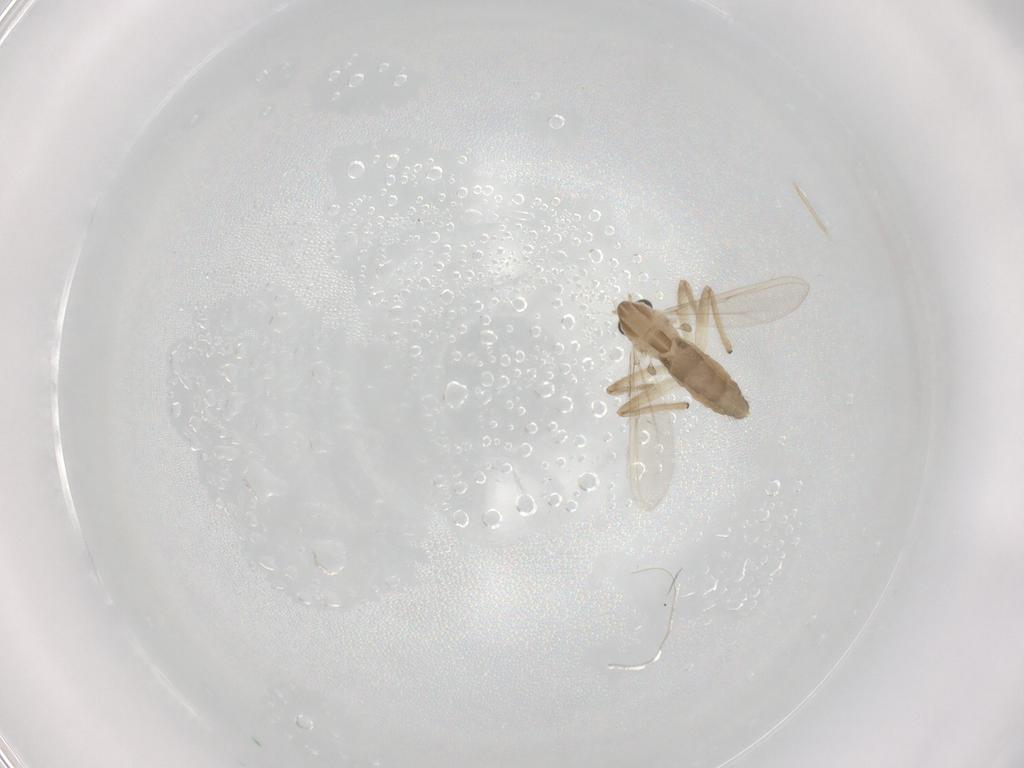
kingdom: Animalia
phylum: Arthropoda
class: Insecta
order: Diptera
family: Chironomidae
